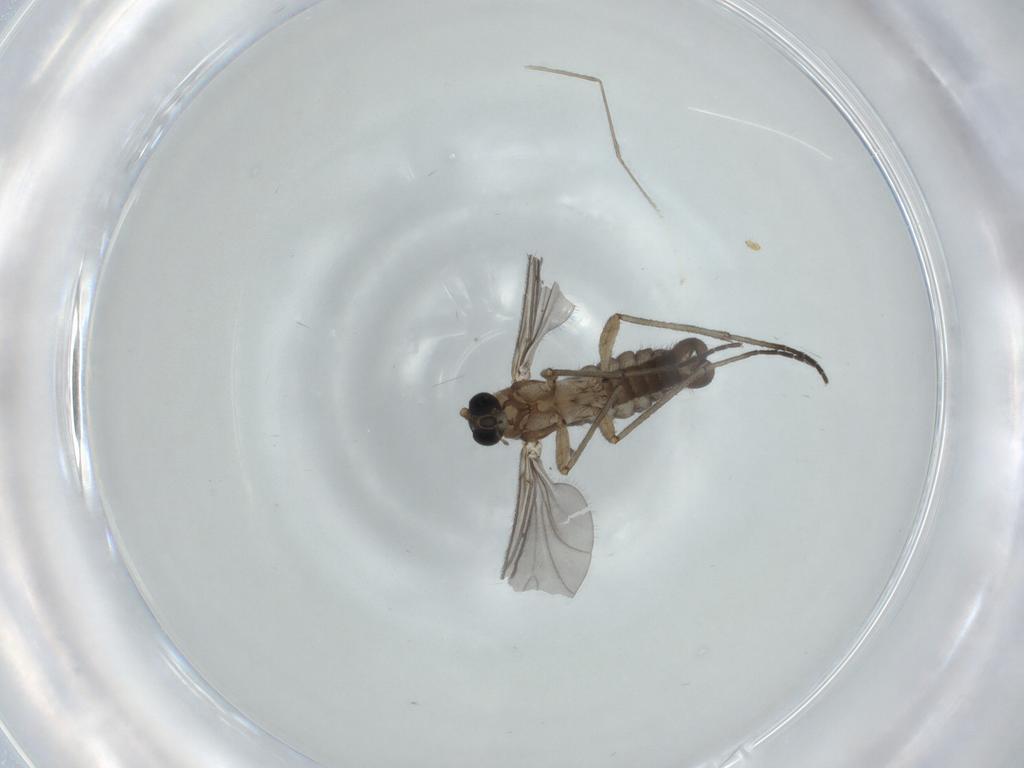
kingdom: Animalia
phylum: Arthropoda
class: Insecta
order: Diptera
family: Sciaridae
